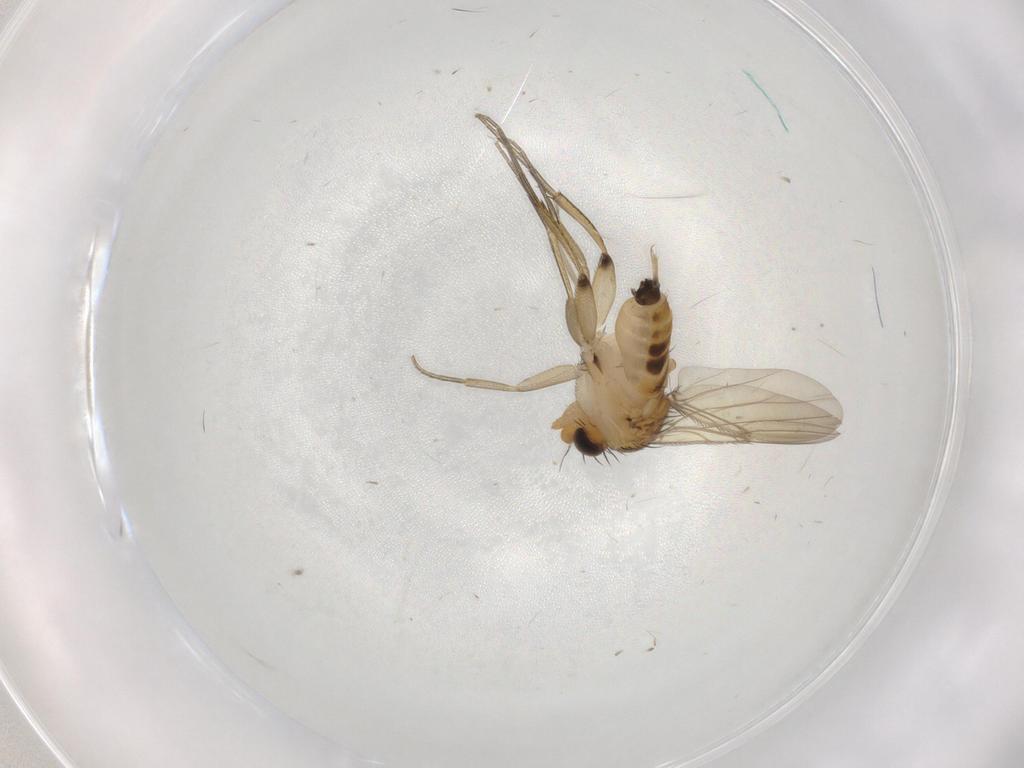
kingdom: Animalia
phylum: Arthropoda
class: Insecta
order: Diptera
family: Phoridae
